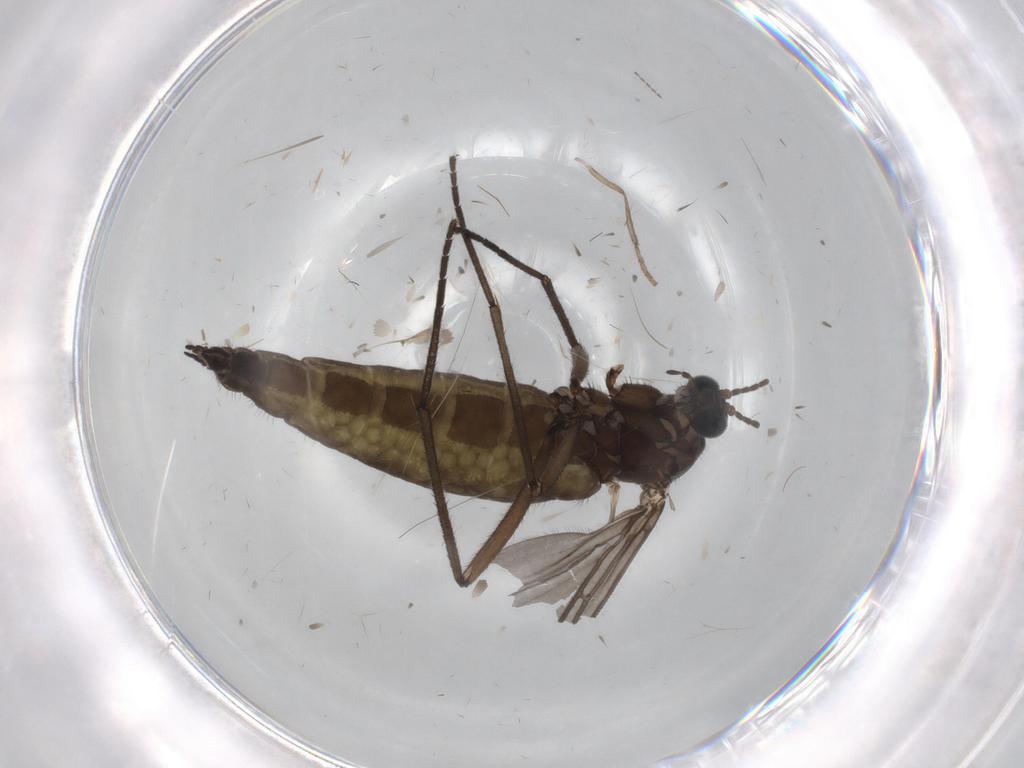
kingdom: Animalia
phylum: Arthropoda
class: Insecta
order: Diptera
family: Sciaridae
